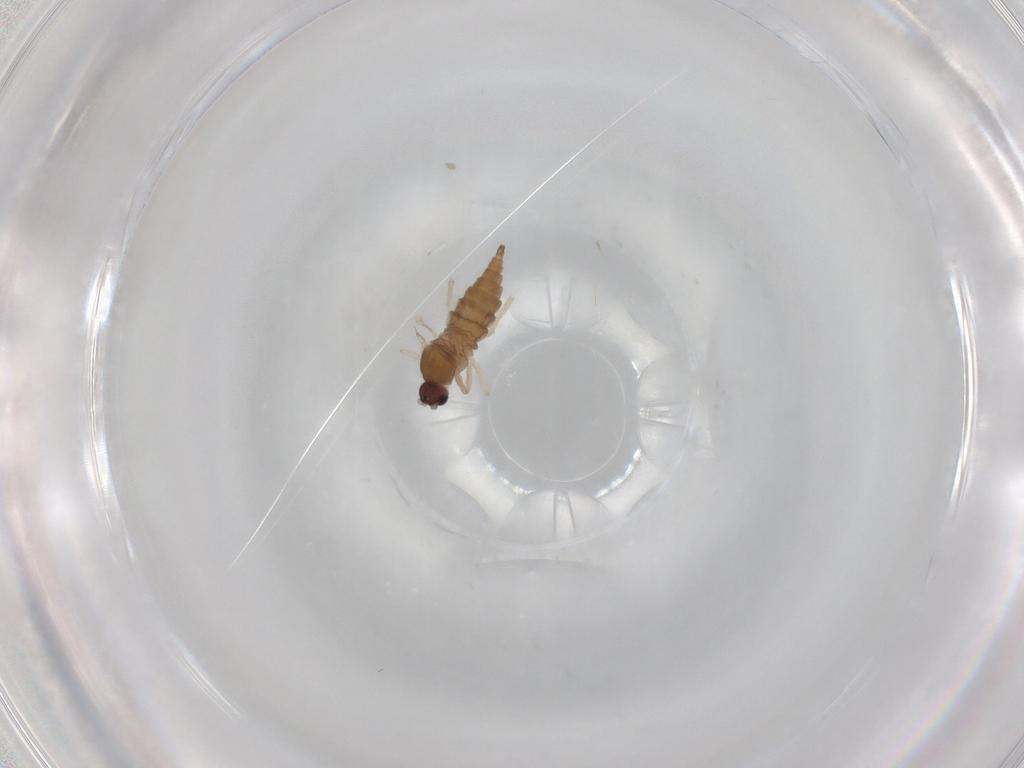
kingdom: Animalia
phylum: Arthropoda
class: Insecta
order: Diptera
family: Cecidomyiidae
